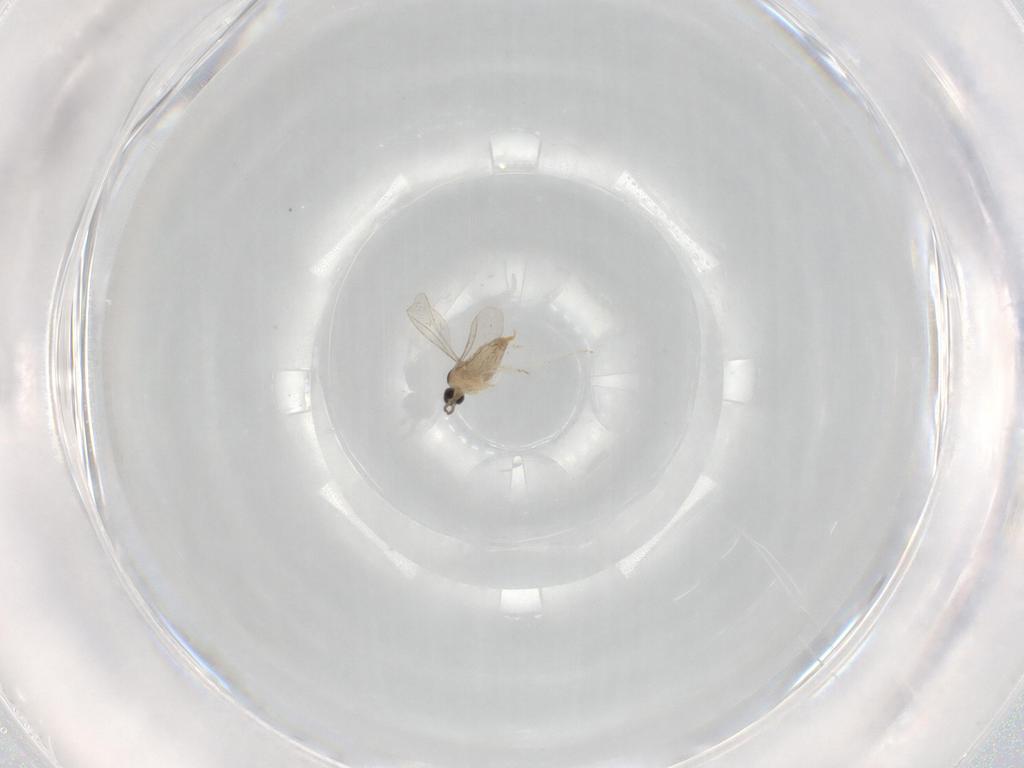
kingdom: Animalia
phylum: Arthropoda
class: Insecta
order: Diptera
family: Cecidomyiidae
